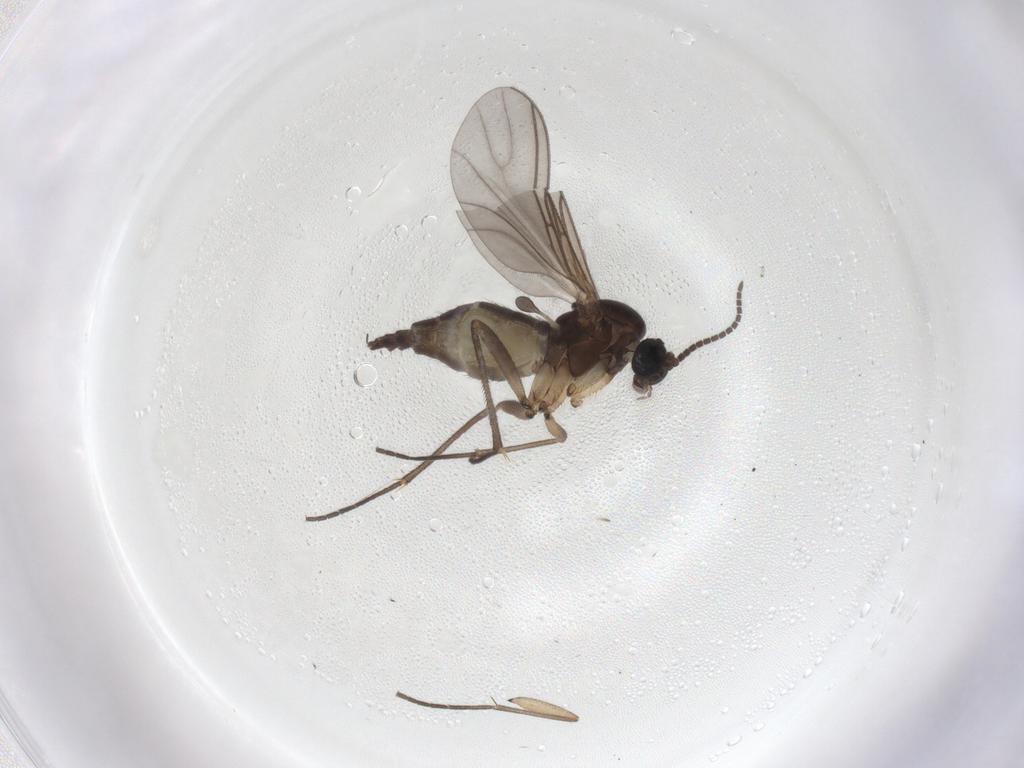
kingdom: Animalia
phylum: Arthropoda
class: Insecta
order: Diptera
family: Sciaridae
